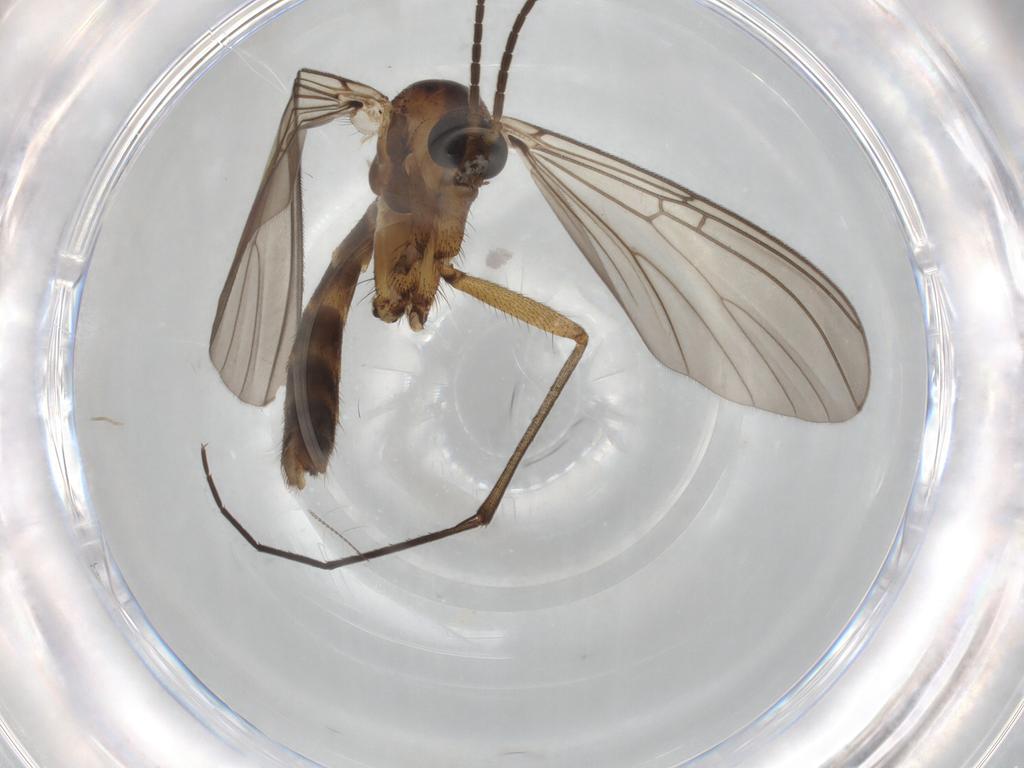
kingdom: Animalia
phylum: Arthropoda
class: Insecta
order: Diptera
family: Chironomidae
